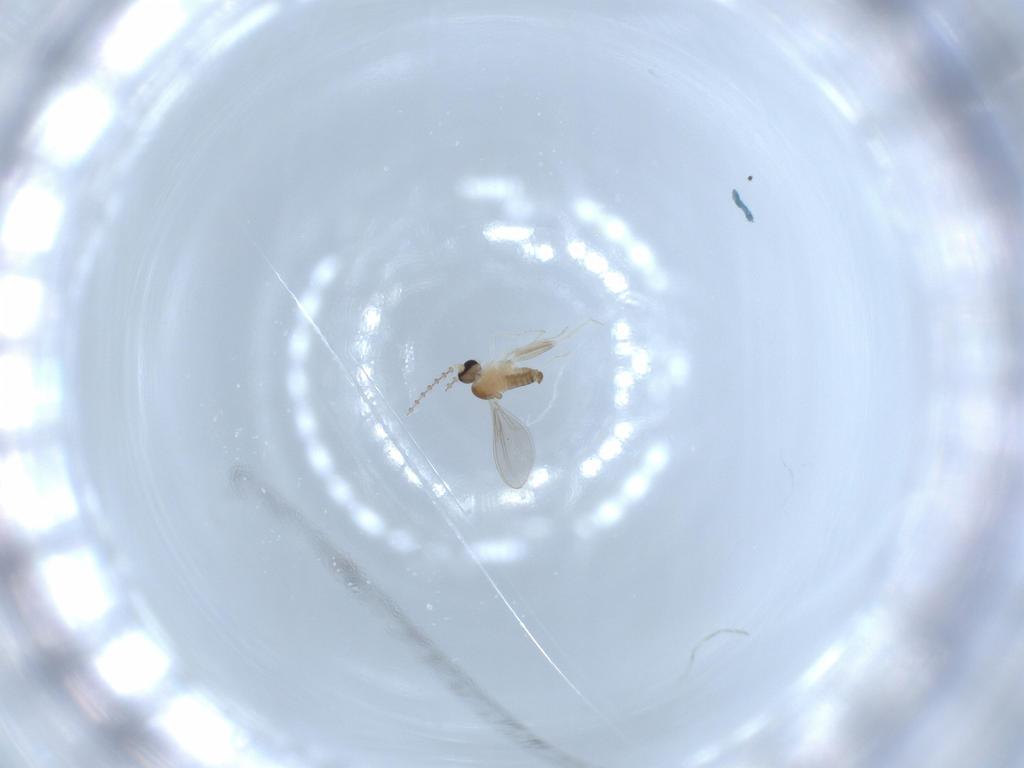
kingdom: Animalia
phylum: Arthropoda
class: Insecta
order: Diptera
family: Cecidomyiidae
